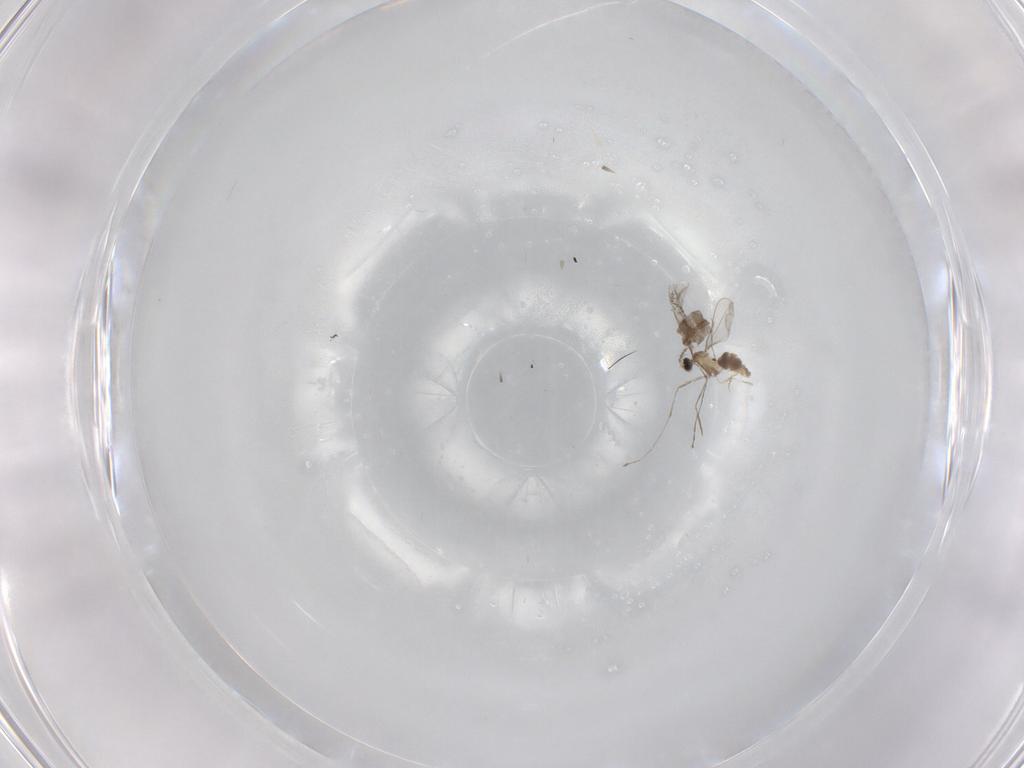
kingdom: Animalia
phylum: Arthropoda
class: Insecta
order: Diptera
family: Cecidomyiidae
